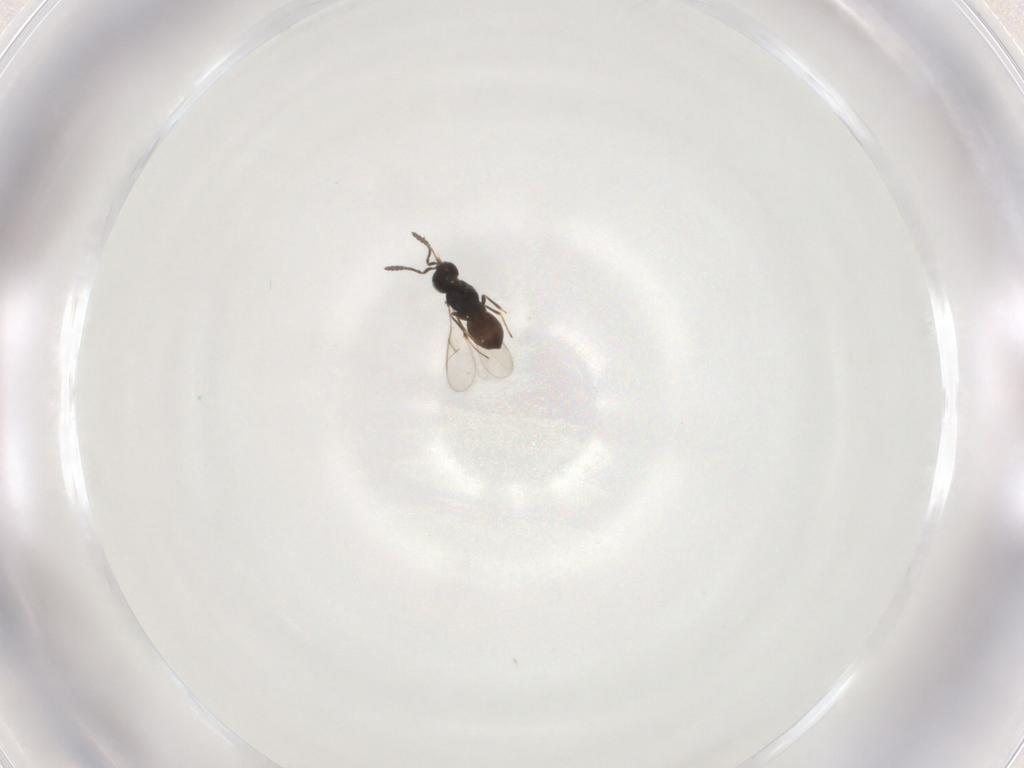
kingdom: Animalia
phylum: Arthropoda
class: Insecta
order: Hymenoptera
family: Scelionidae
